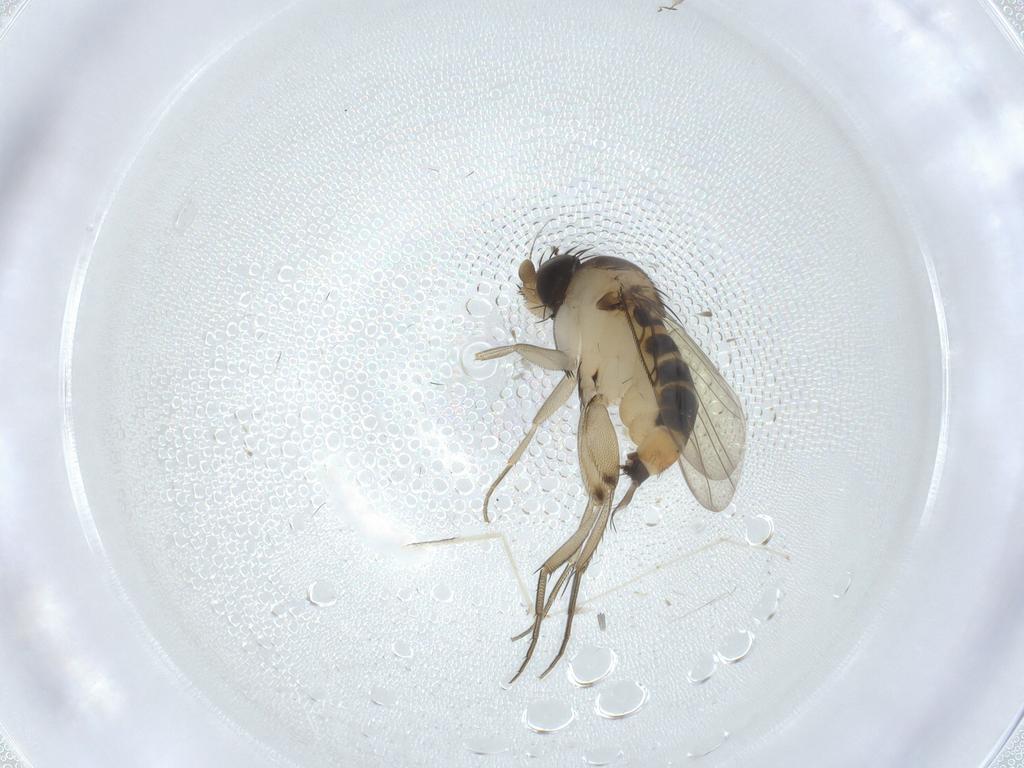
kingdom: Animalia
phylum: Arthropoda
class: Insecta
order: Diptera
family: Phoridae
